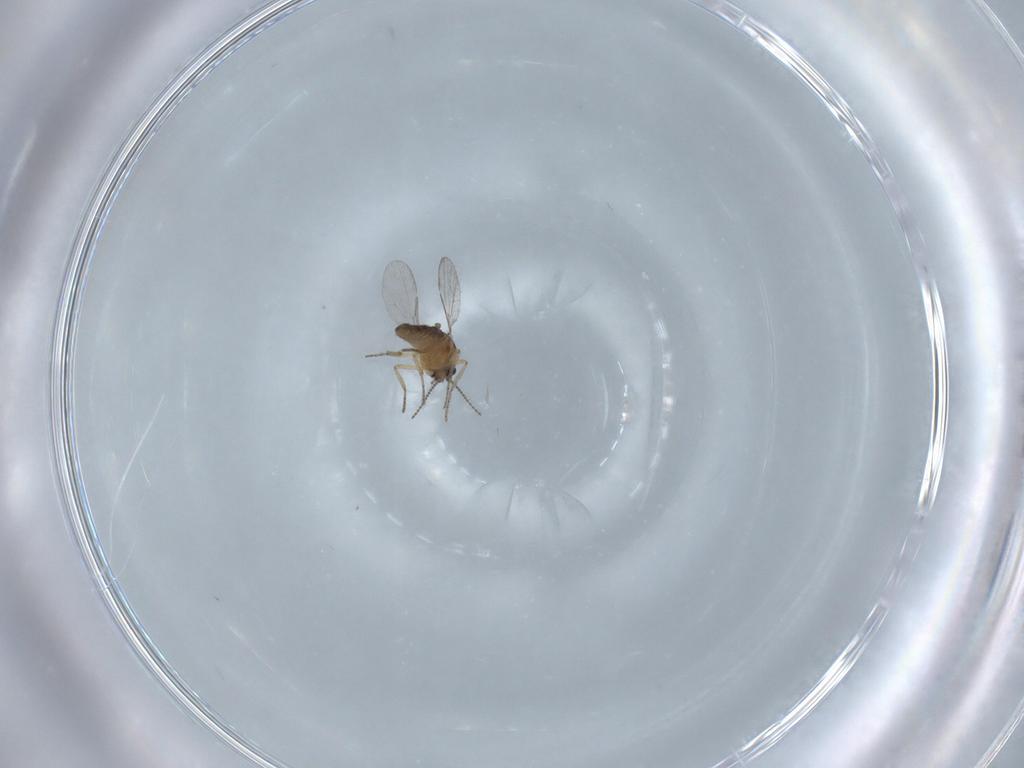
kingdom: Animalia
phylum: Arthropoda
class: Insecta
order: Diptera
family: Ceratopogonidae
